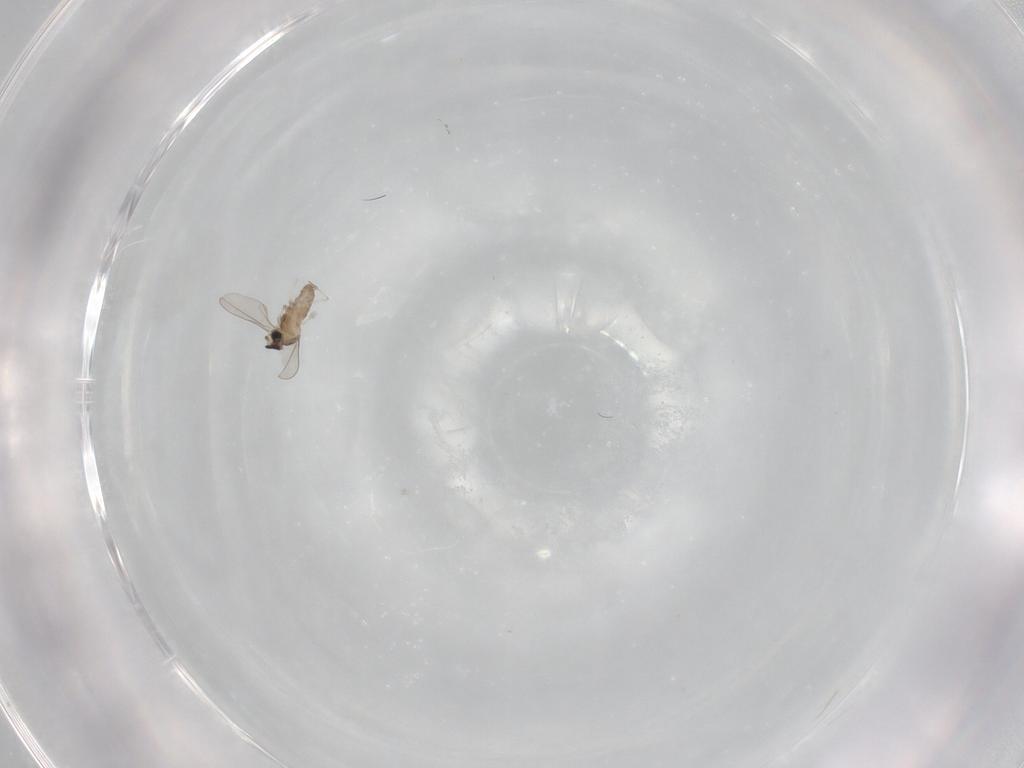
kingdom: Animalia
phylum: Arthropoda
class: Insecta
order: Diptera
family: Cecidomyiidae
